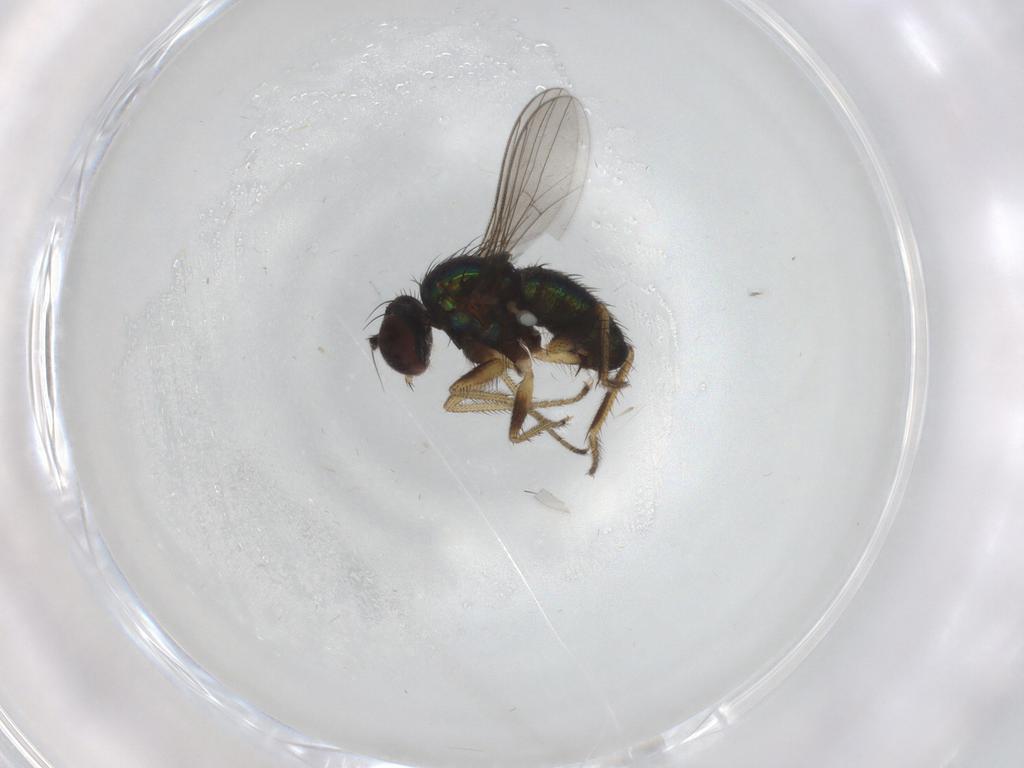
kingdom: Animalia
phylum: Arthropoda
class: Insecta
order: Diptera
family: Dolichopodidae
